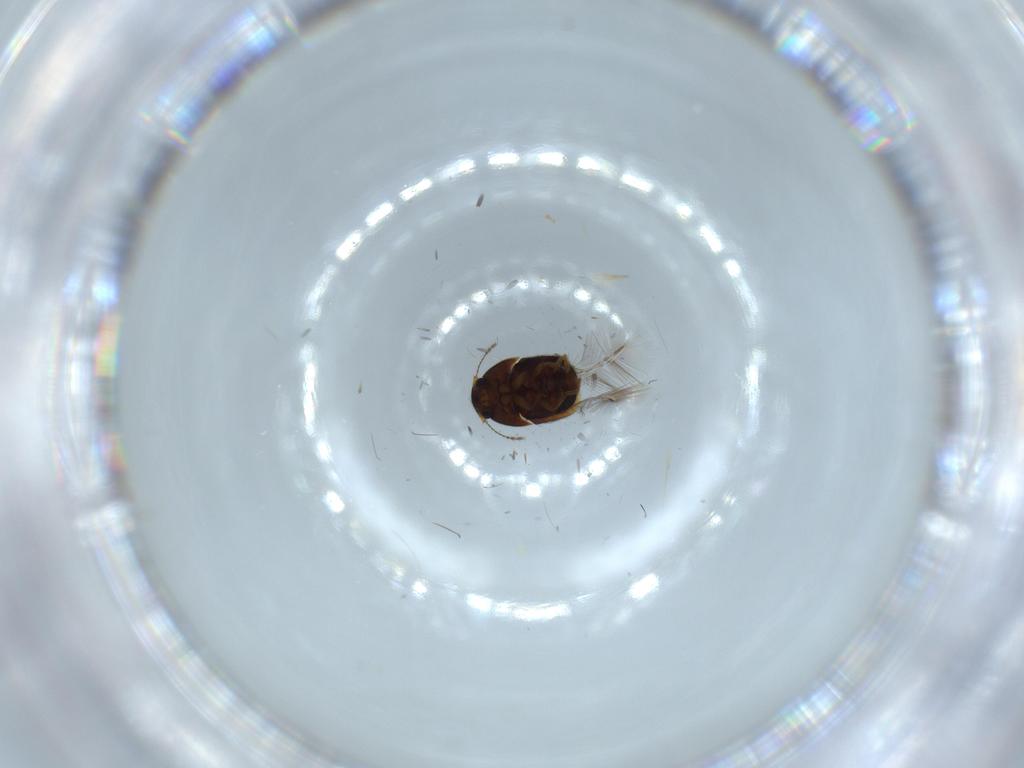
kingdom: Animalia
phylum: Arthropoda
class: Insecta
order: Coleoptera
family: Ptiliidae
